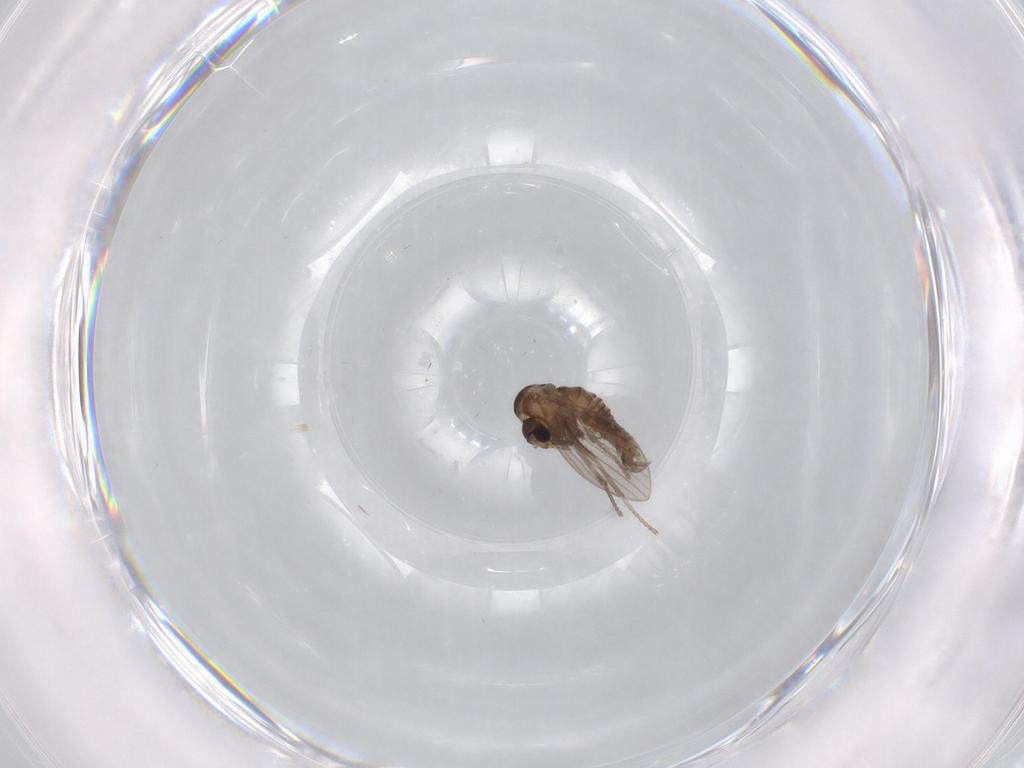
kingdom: Animalia
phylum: Arthropoda
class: Insecta
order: Diptera
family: Psychodidae
